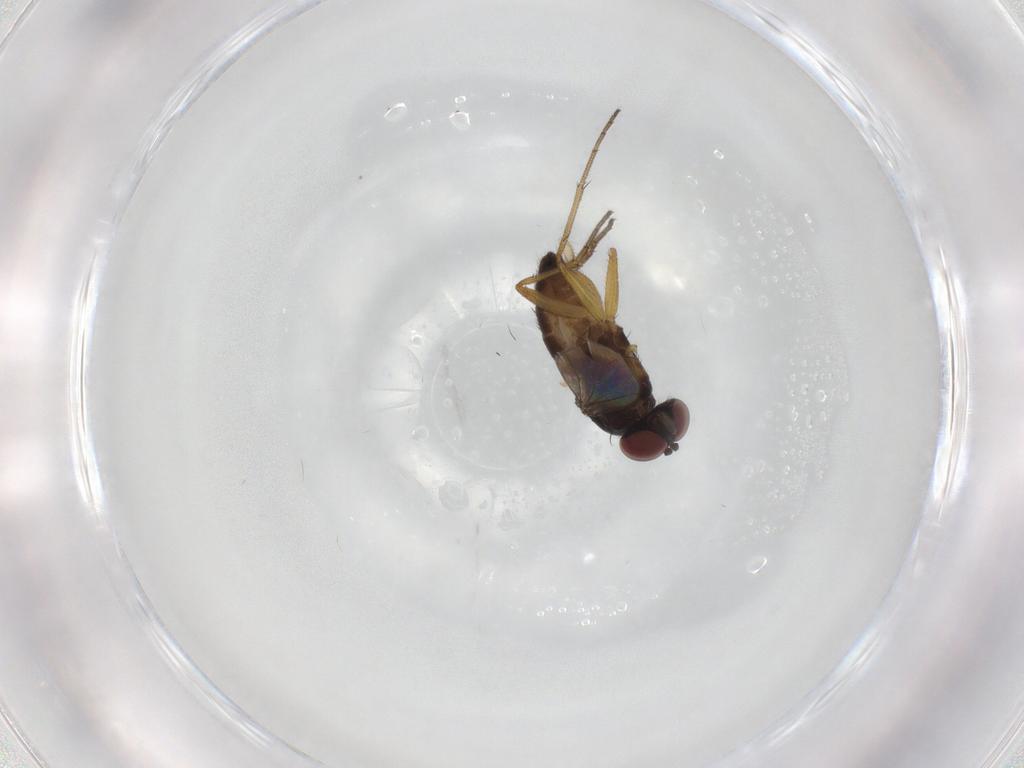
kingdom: Animalia
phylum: Arthropoda
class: Insecta
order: Diptera
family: Dolichopodidae
